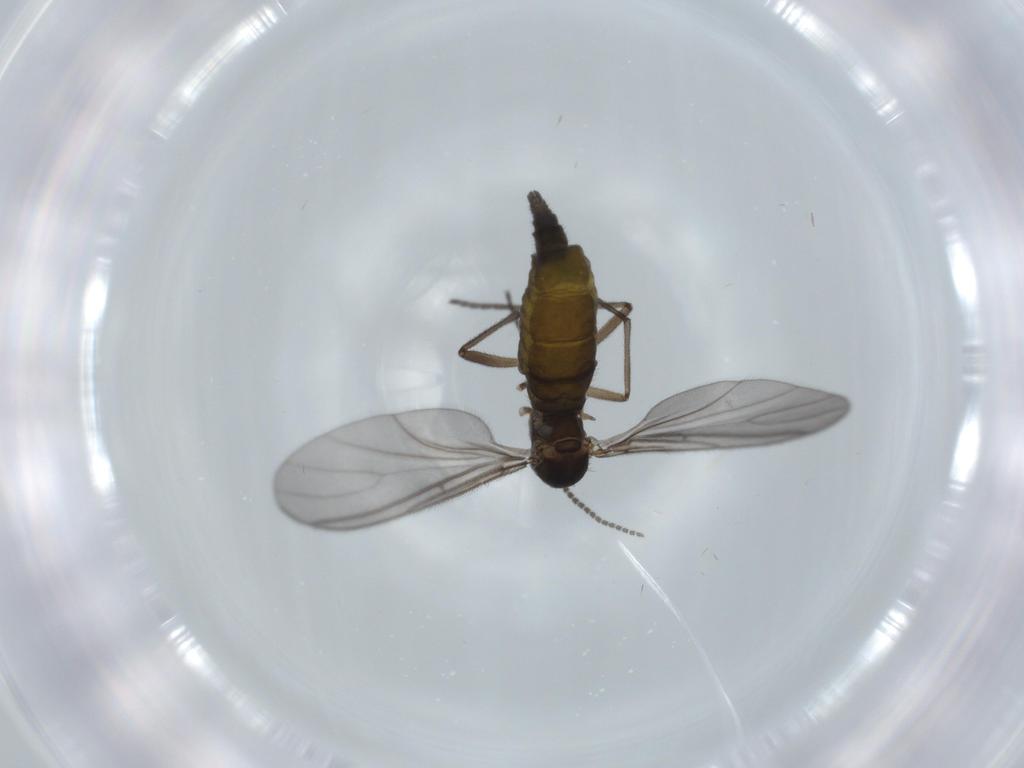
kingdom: Animalia
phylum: Arthropoda
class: Insecta
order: Diptera
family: Sciaridae
